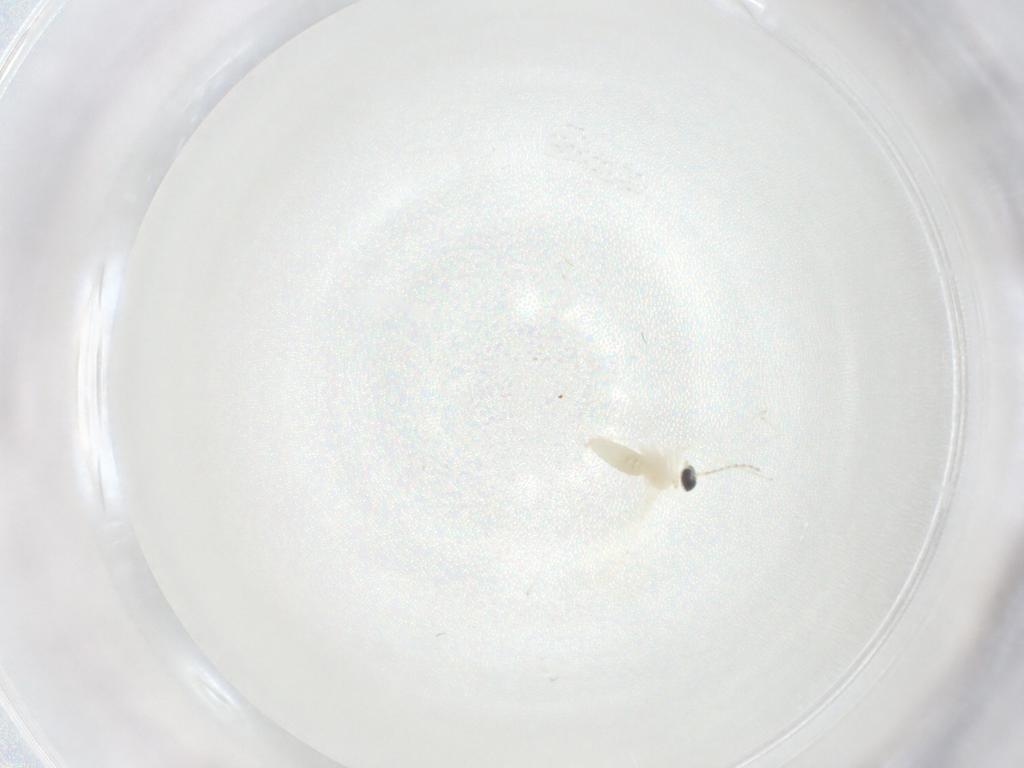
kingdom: Animalia
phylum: Arthropoda
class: Insecta
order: Diptera
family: Cecidomyiidae
